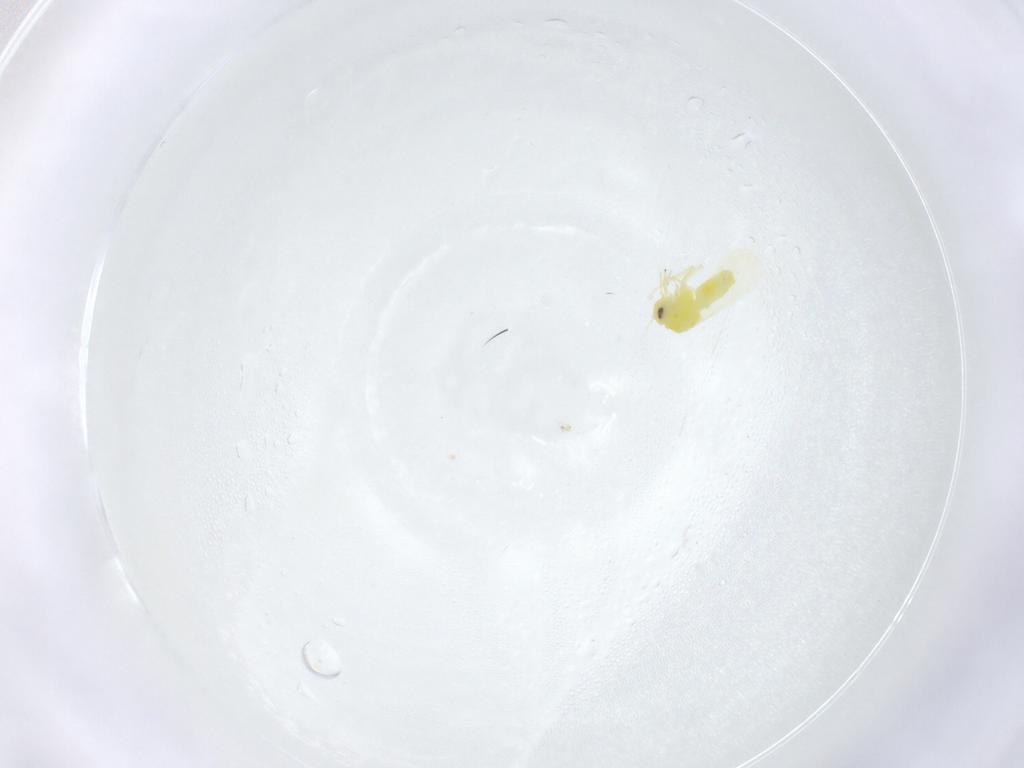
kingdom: Animalia
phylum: Arthropoda
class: Insecta
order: Hemiptera
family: Aleyrodidae
